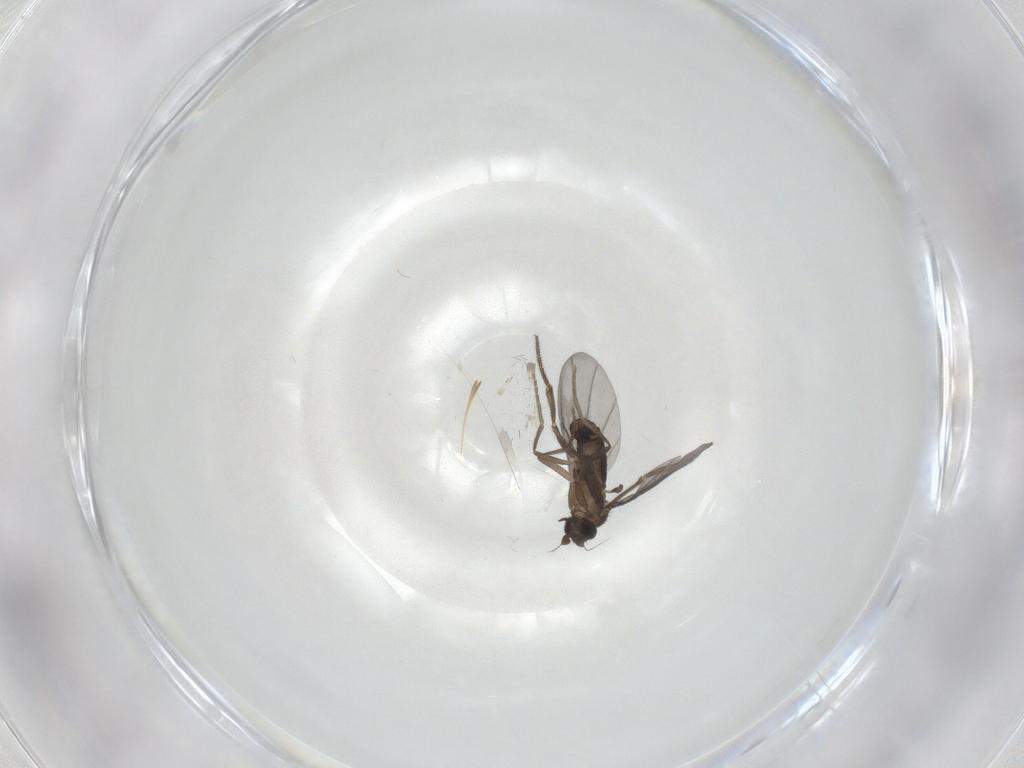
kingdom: Animalia
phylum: Arthropoda
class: Insecta
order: Diptera
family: Phoridae
